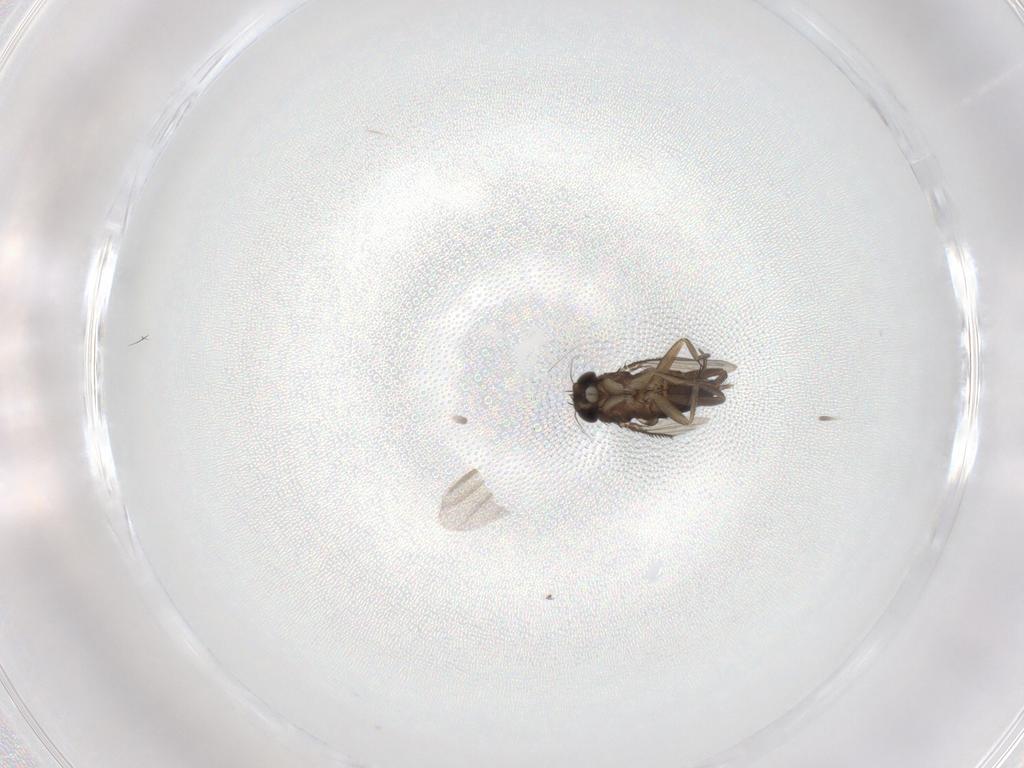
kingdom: Animalia
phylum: Arthropoda
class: Insecta
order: Diptera
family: Phoridae
